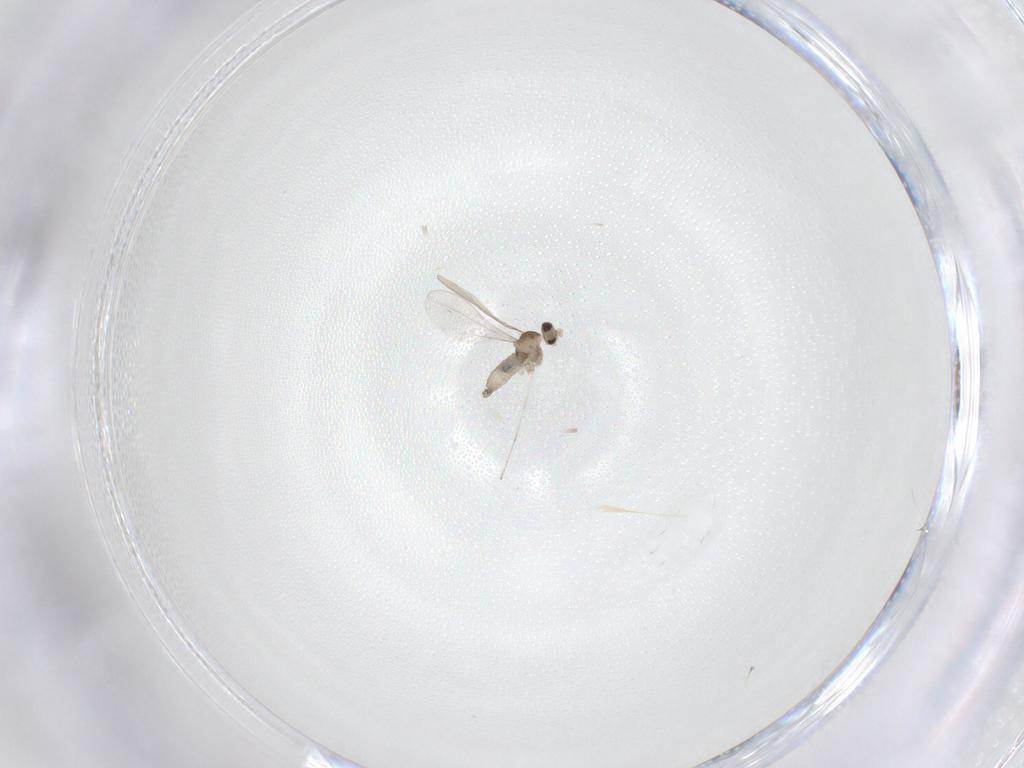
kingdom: Animalia
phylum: Arthropoda
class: Insecta
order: Diptera
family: Cecidomyiidae
